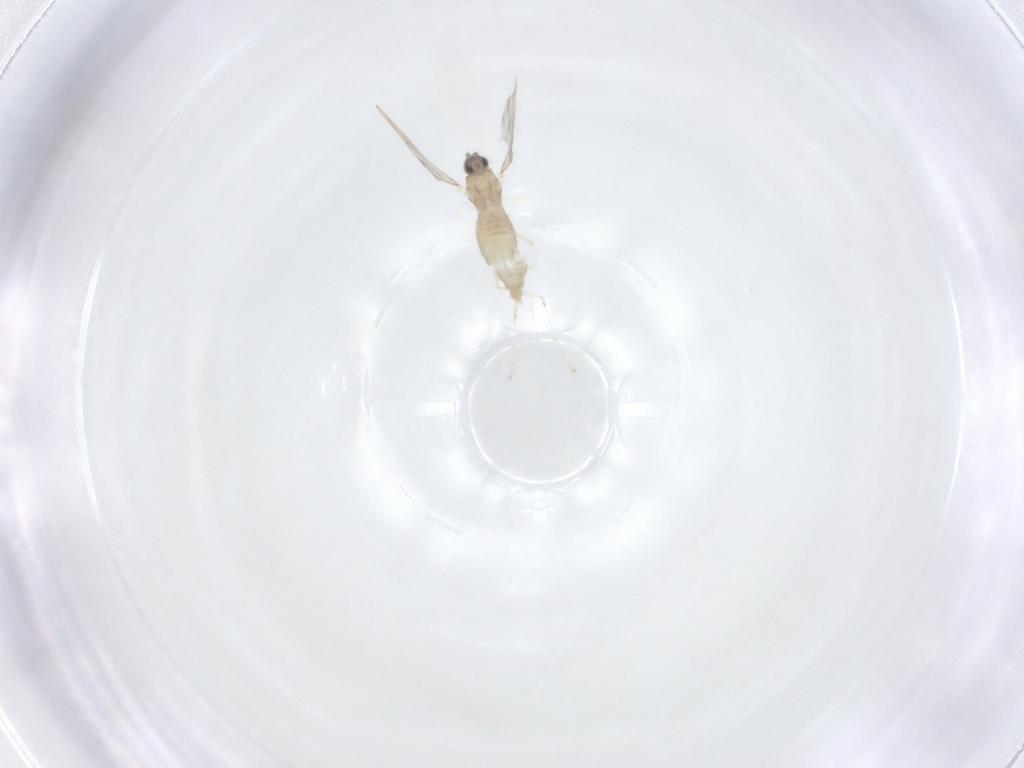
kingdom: Animalia
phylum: Arthropoda
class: Insecta
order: Diptera
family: Cecidomyiidae
